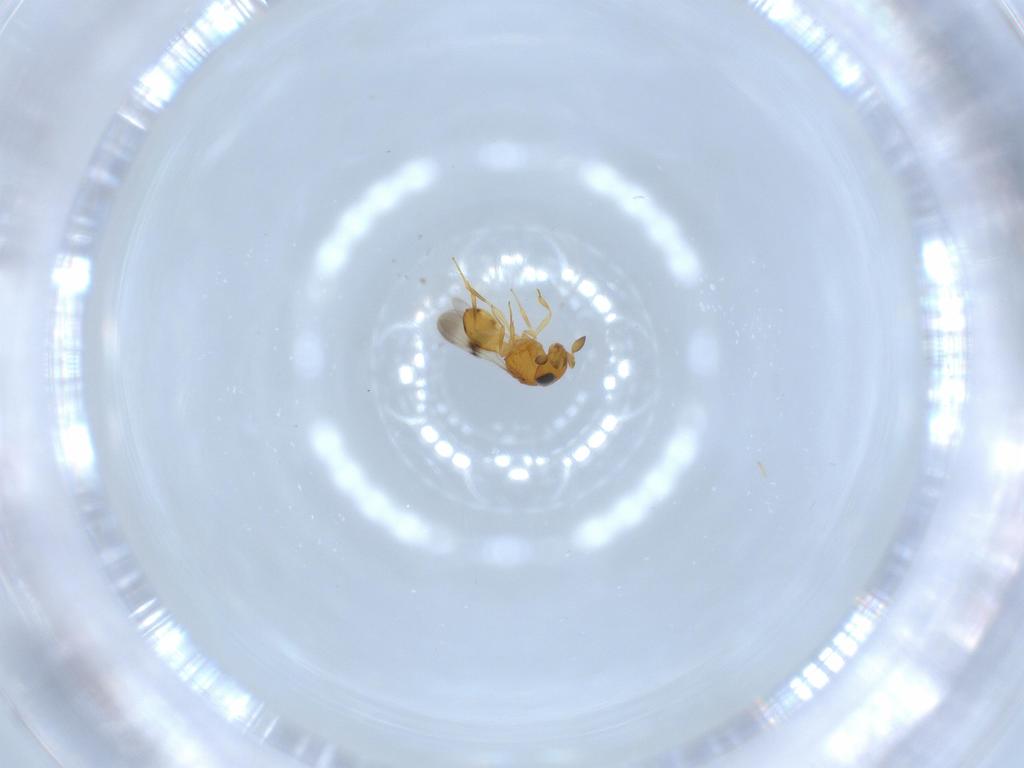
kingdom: Animalia
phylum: Arthropoda
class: Insecta
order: Hymenoptera
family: Scelionidae
